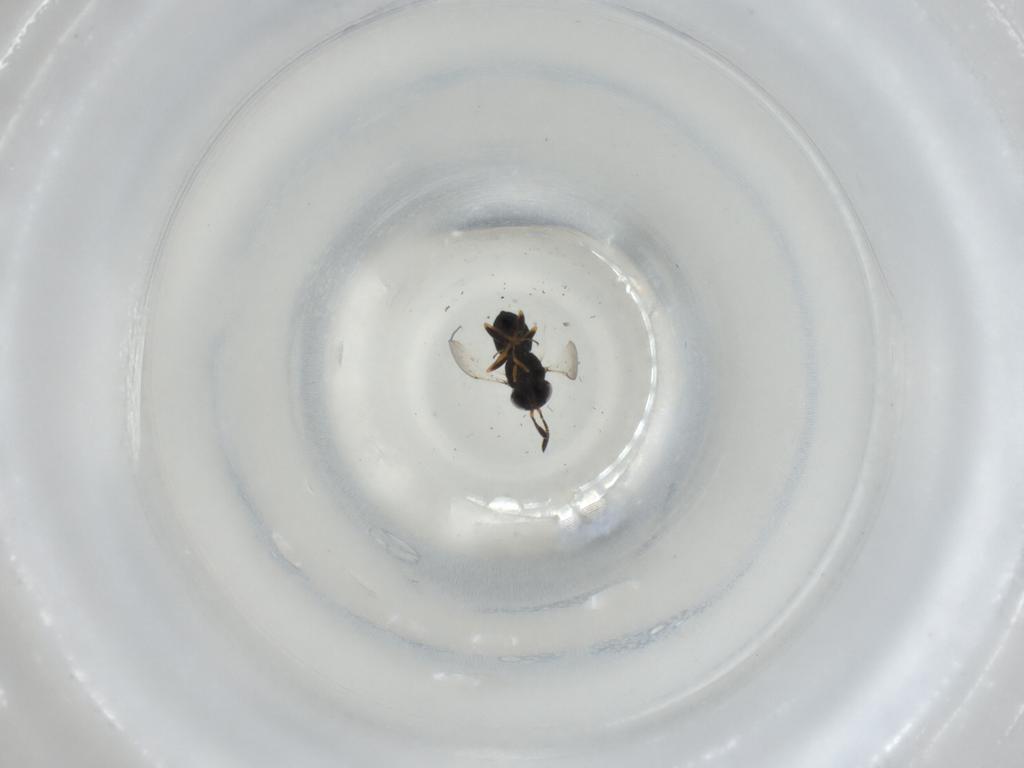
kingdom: Animalia
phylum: Arthropoda
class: Insecta
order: Hymenoptera
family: Scelionidae
